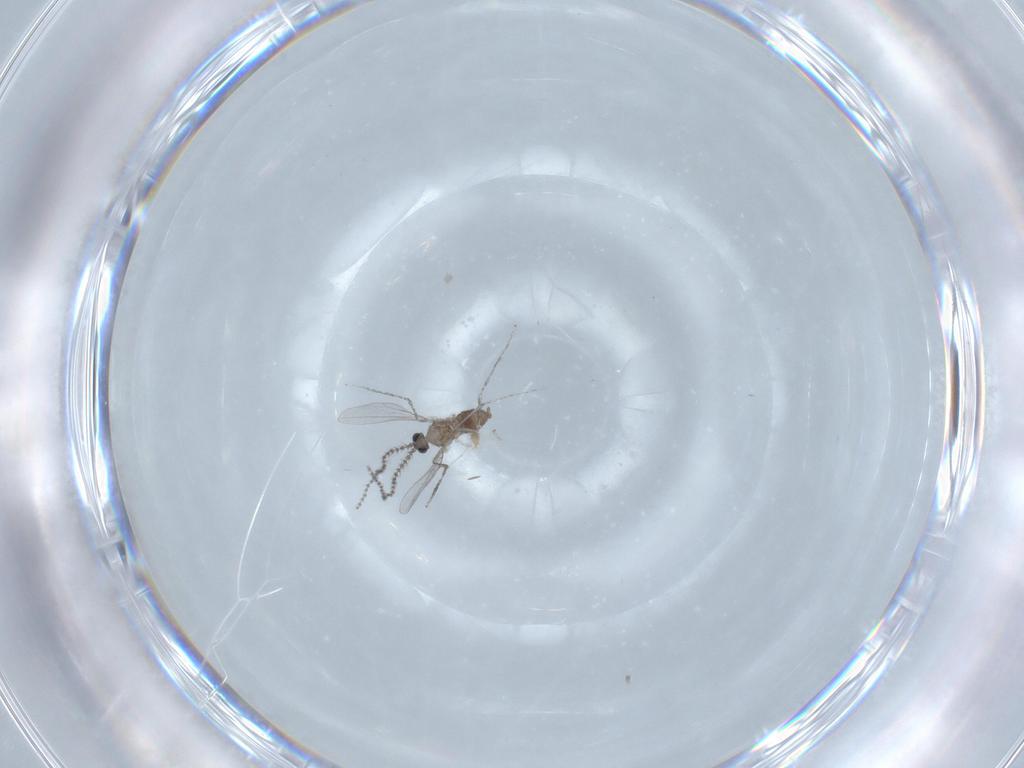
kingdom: Animalia
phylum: Arthropoda
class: Insecta
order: Diptera
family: Cecidomyiidae
